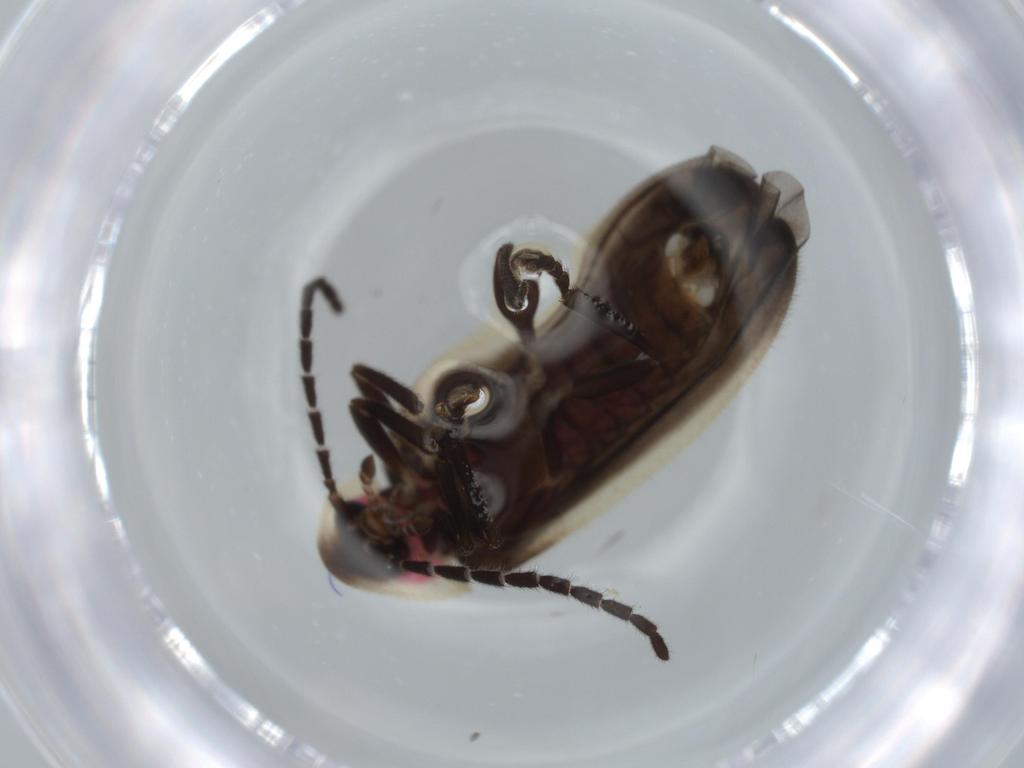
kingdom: Animalia
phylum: Arthropoda
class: Insecta
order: Coleoptera
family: Lampyridae
